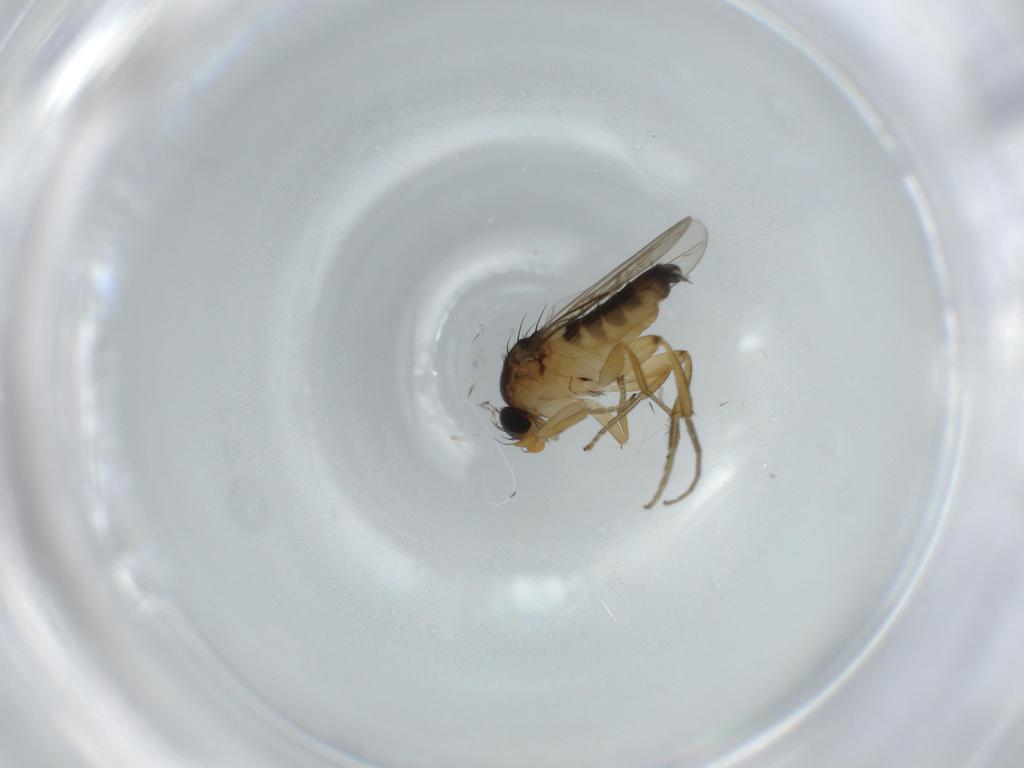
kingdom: Animalia
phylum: Arthropoda
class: Insecta
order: Diptera
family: Phoridae
